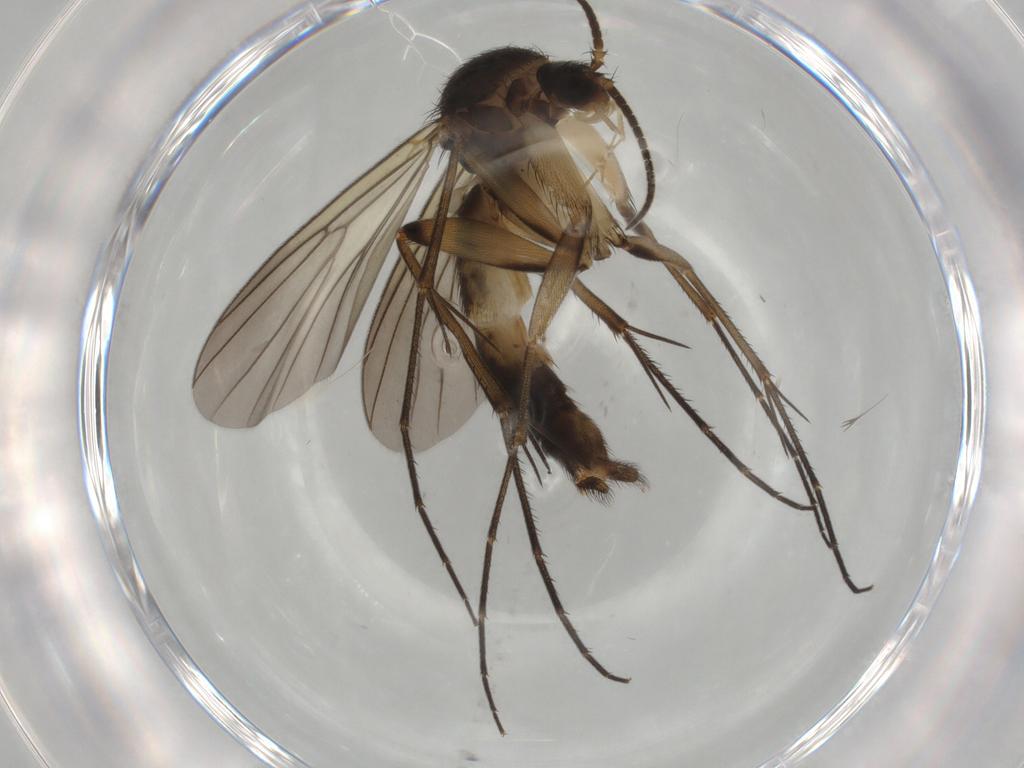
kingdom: Animalia
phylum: Arthropoda
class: Insecta
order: Diptera
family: Mycetophilidae
